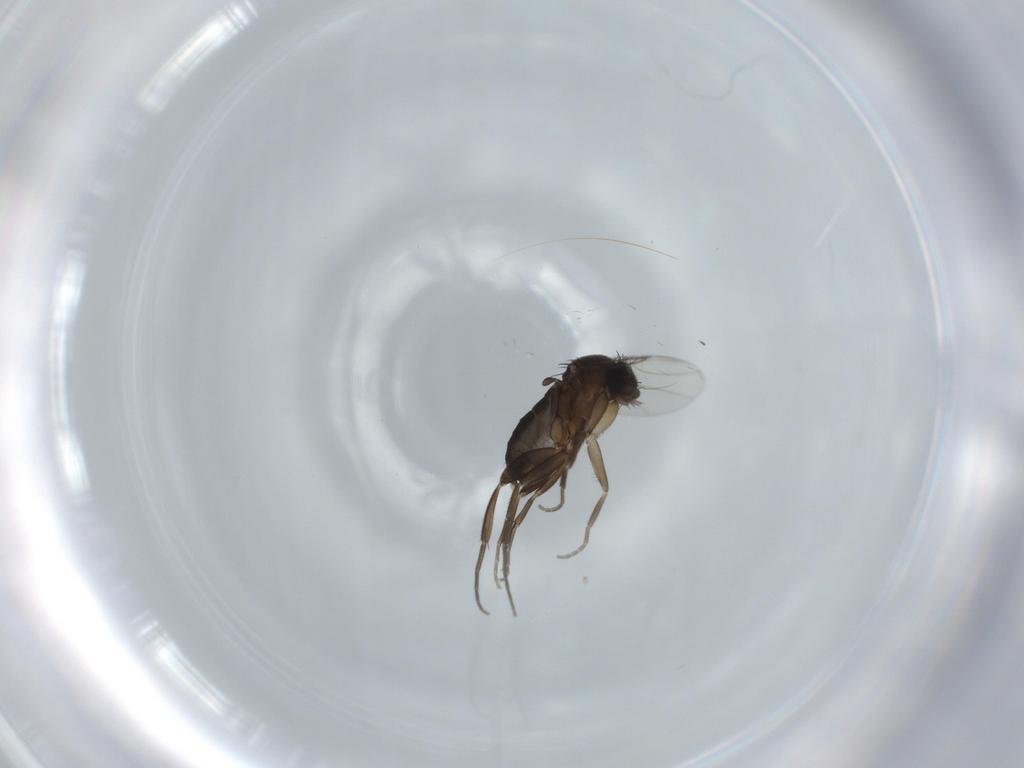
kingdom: Animalia
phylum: Arthropoda
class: Insecta
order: Diptera
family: Phoridae
